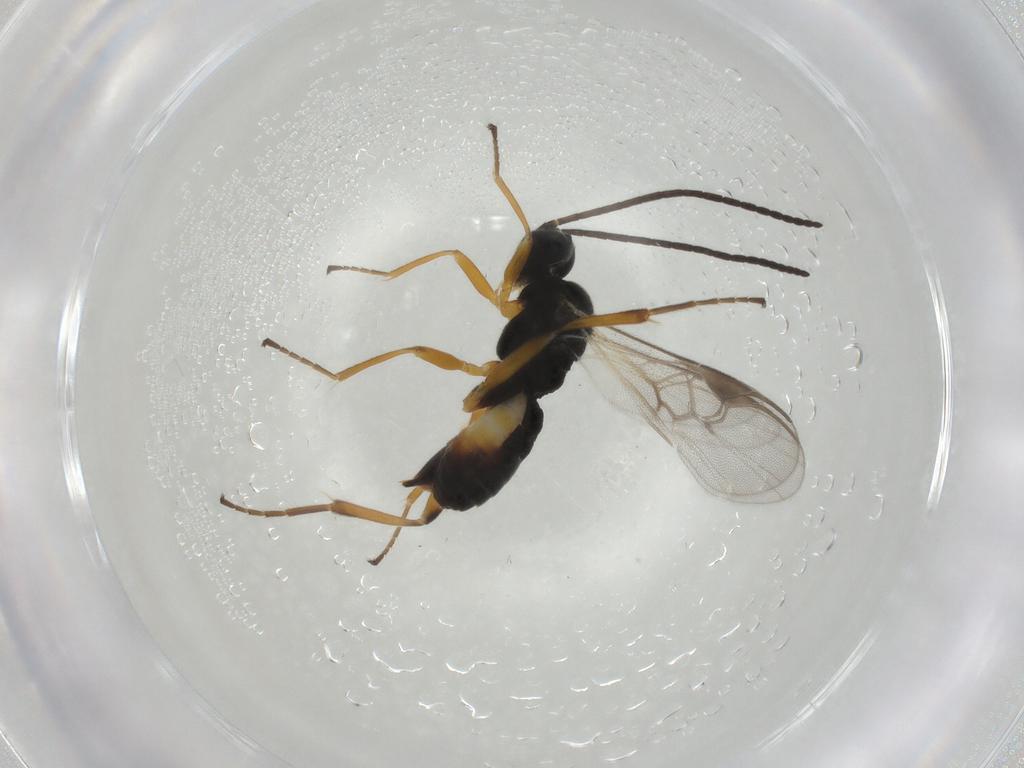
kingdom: Animalia
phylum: Arthropoda
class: Insecta
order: Hymenoptera
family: Braconidae
